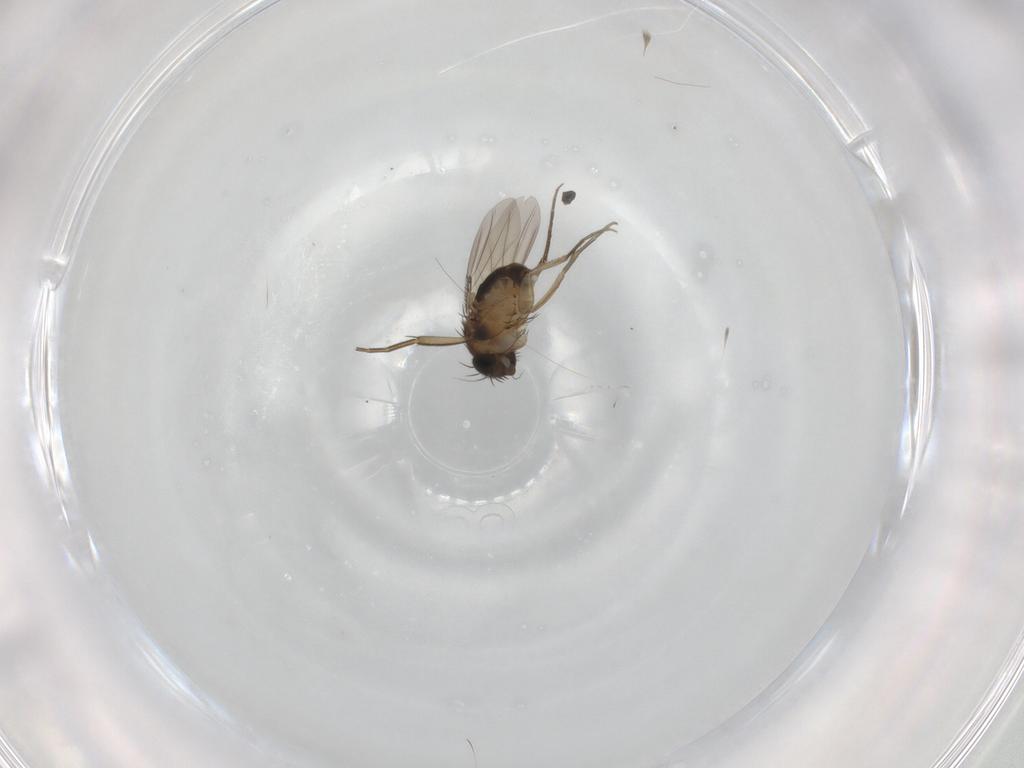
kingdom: Animalia
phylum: Arthropoda
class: Insecta
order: Diptera
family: Phoridae
